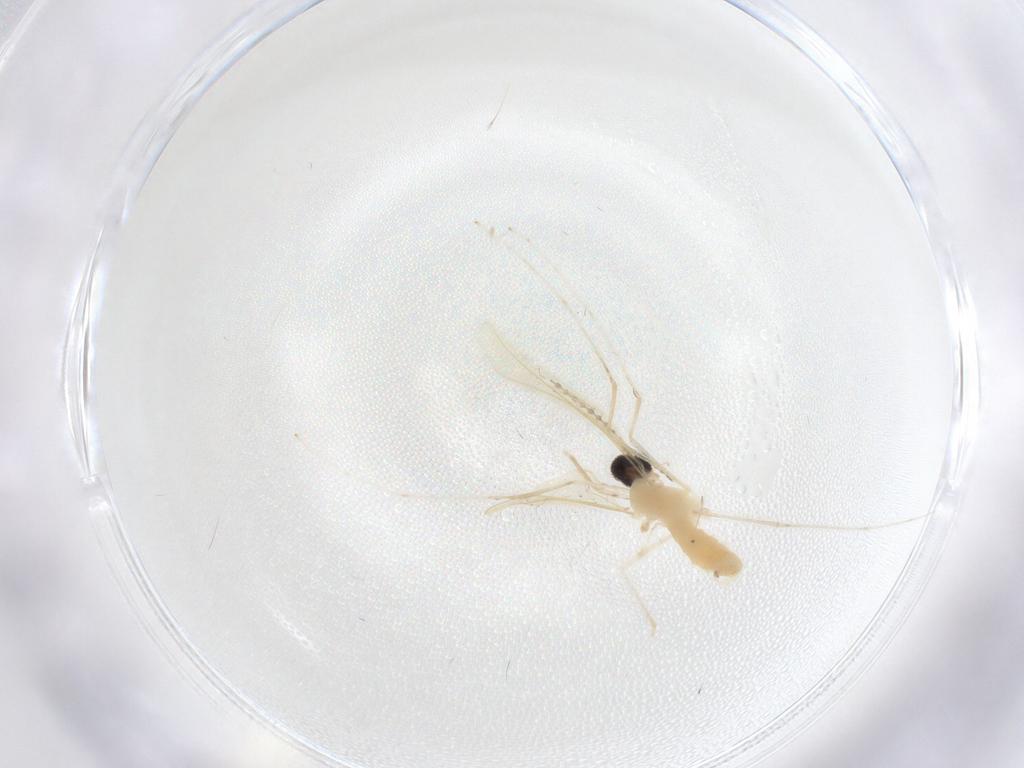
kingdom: Animalia
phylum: Arthropoda
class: Insecta
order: Diptera
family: Cecidomyiidae
